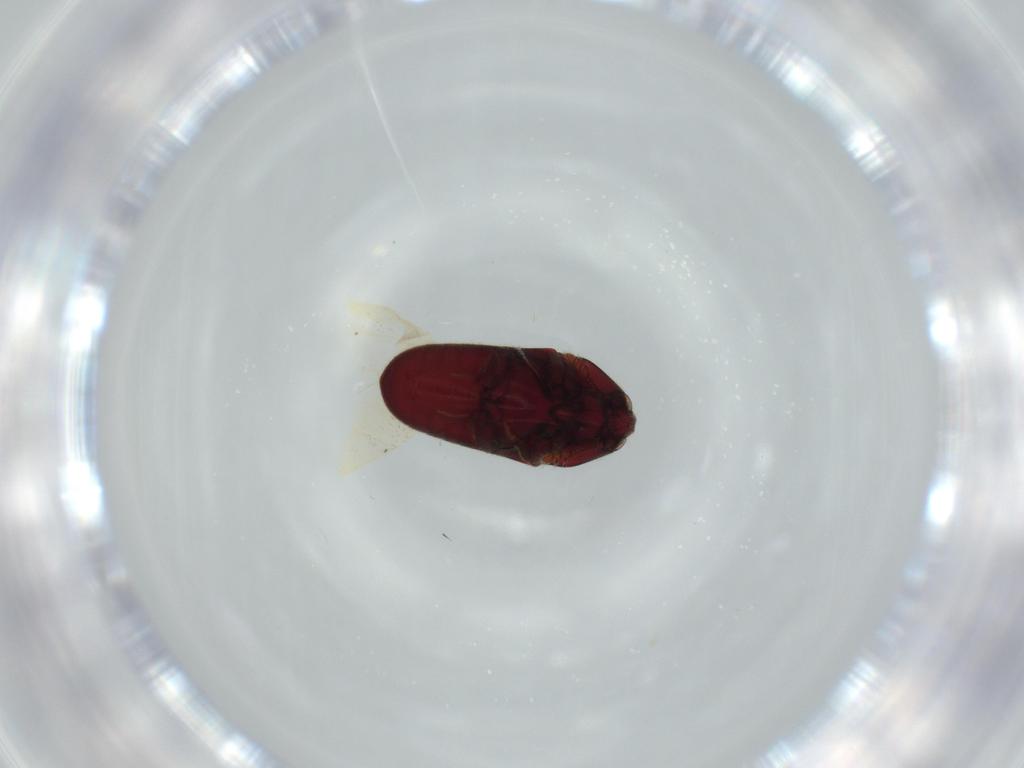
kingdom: Animalia
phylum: Arthropoda
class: Insecta
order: Coleoptera
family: Throscidae
